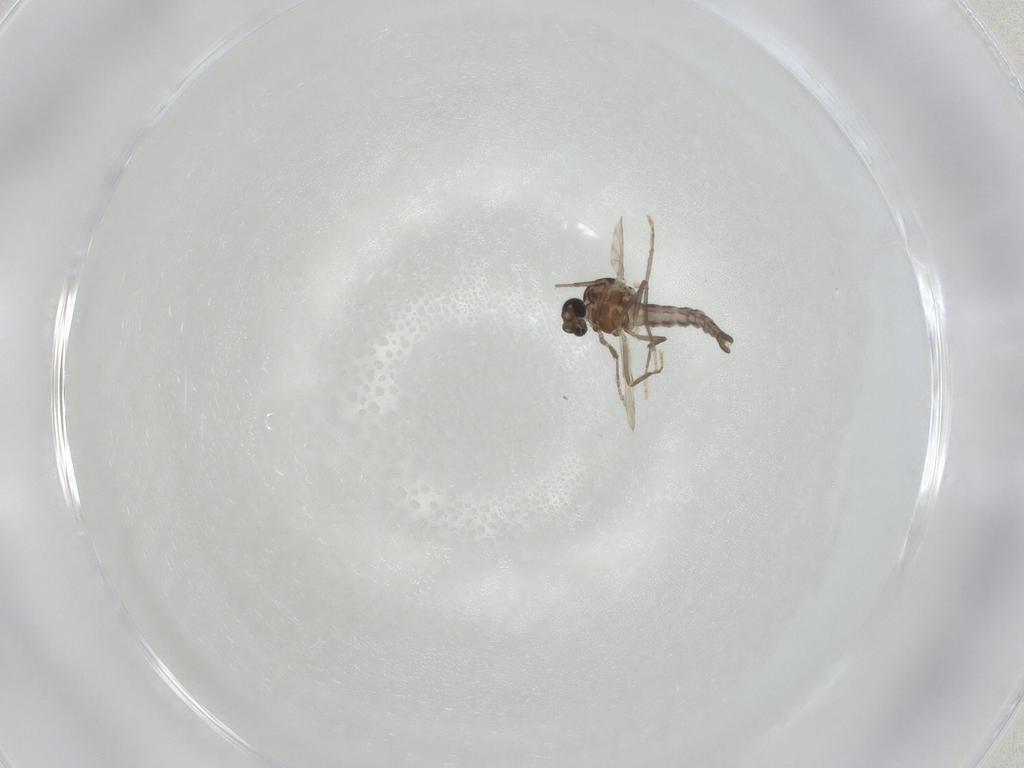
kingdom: Animalia
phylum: Arthropoda
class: Insecta
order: Diptera
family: Ceratopogonidae
